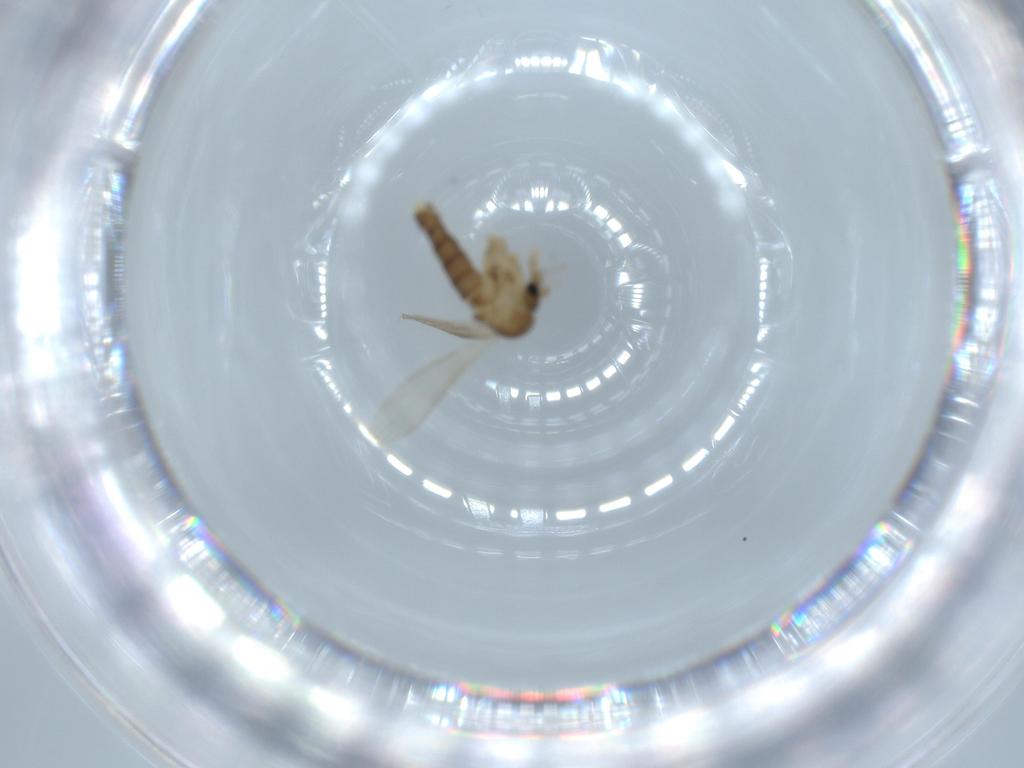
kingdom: Animalia
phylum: Arthropoda
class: Insecta
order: Diptera
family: Psychodidae
